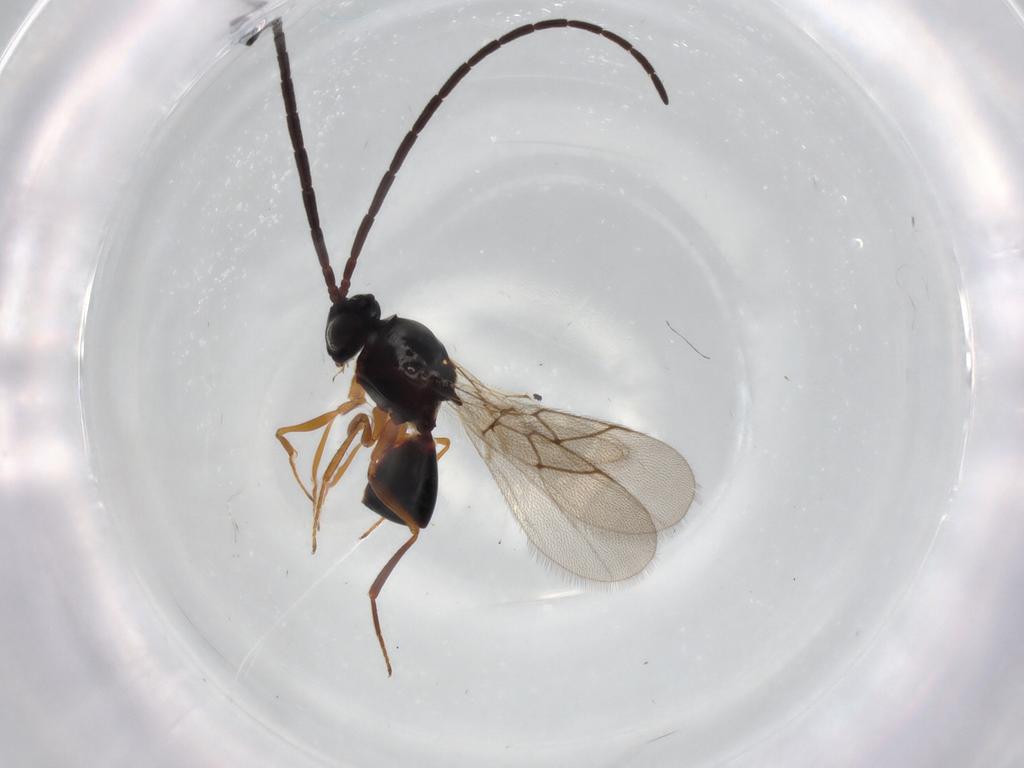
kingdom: Animalia
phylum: Arthropoda
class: Insecta
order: Hymenoptera
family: Figitidae
